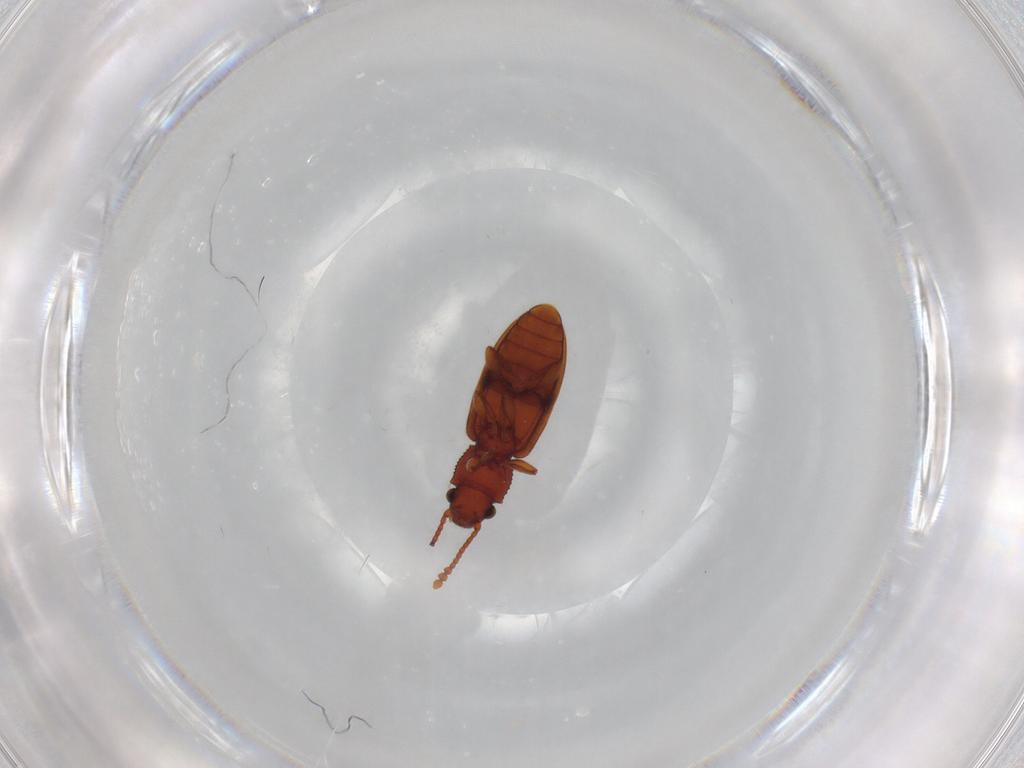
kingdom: Animalia
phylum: Arthropoda
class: Insecta
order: Coleoptera
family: Silvanidae
